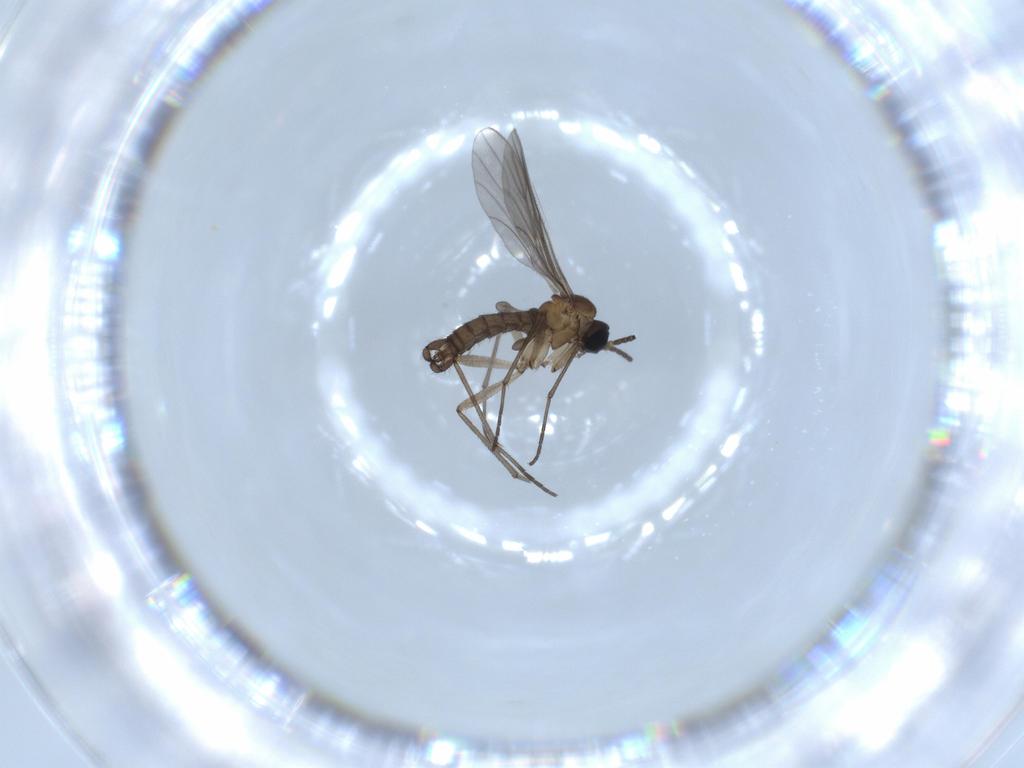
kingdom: Animalia
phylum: Arthropoda
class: Insecta
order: Diptera
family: Sciaridae
